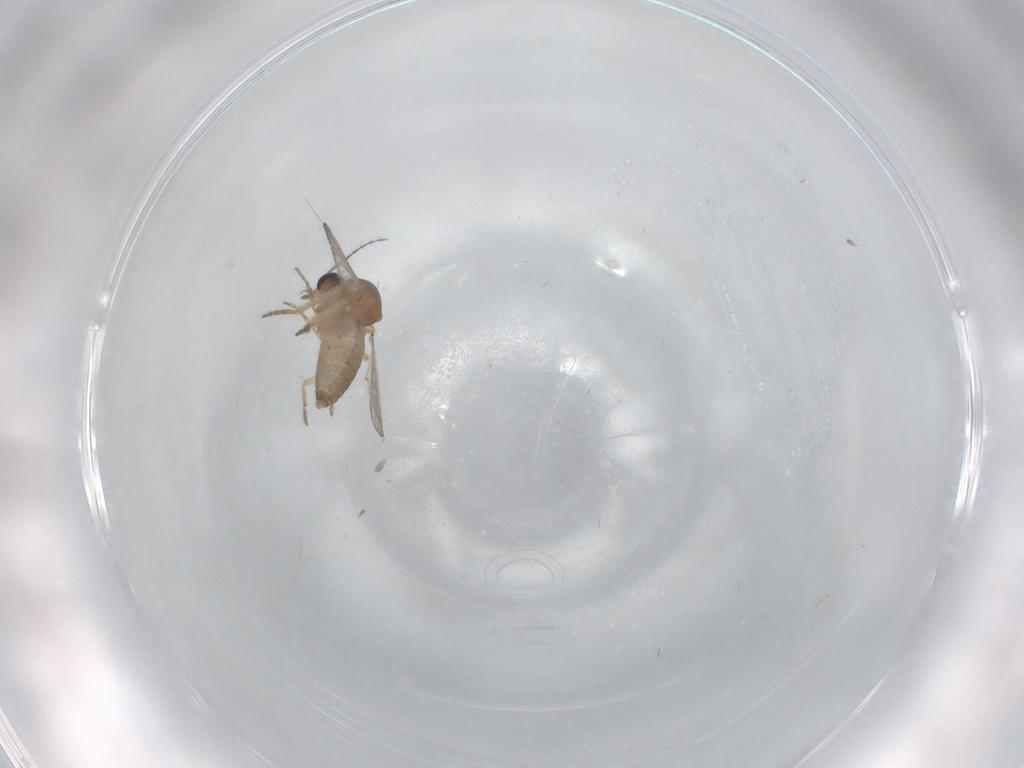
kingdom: Animalia
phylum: Arthropoda
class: Insecta
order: Diptera
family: Ceratopogonidae
